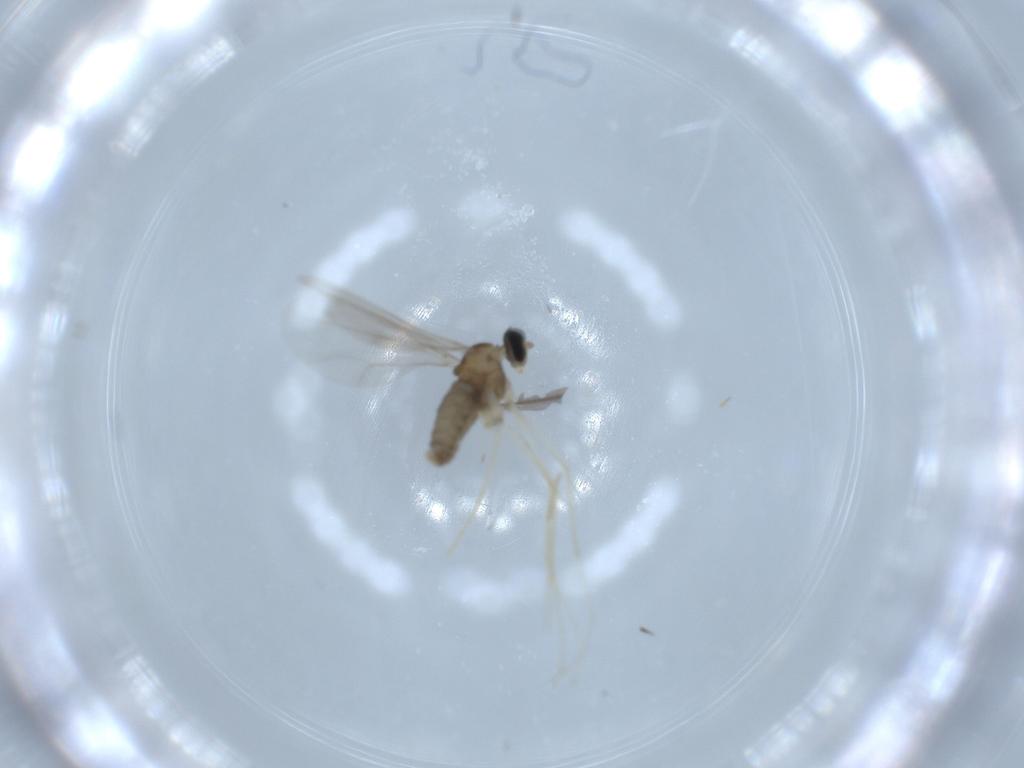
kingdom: Animalia
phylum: Arthropoda
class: Insecta
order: Diptera
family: Cecidomyiidae
